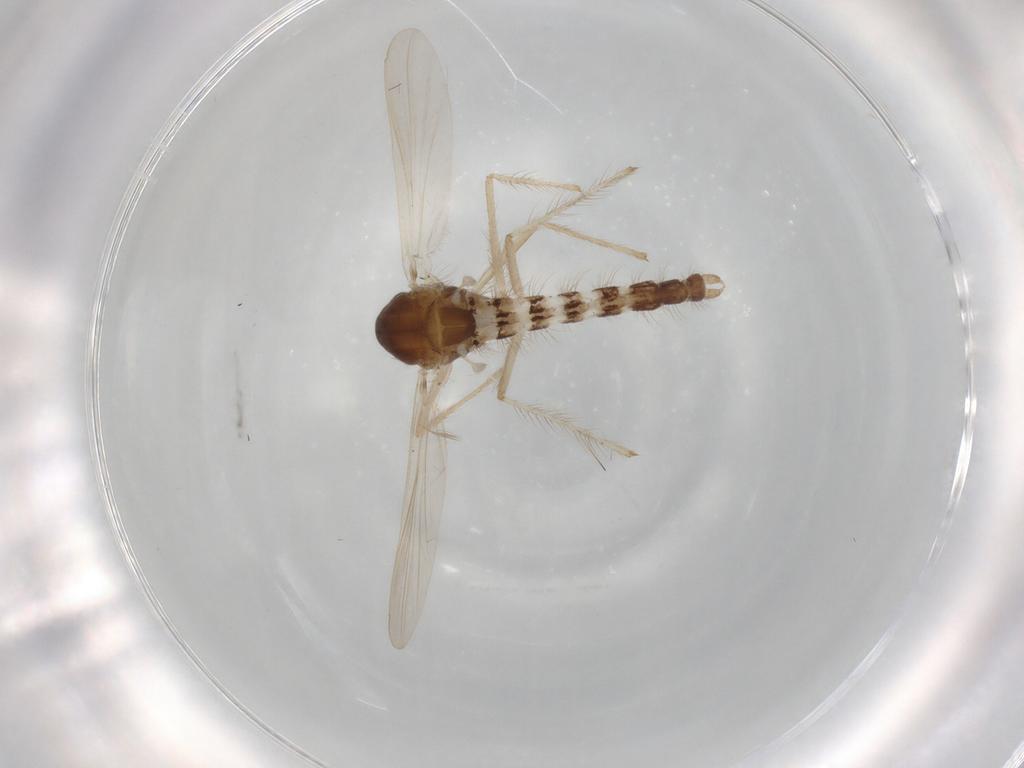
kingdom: Animalia
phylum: Arthropoda
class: Insecta
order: Diptera
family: Chironomidae
